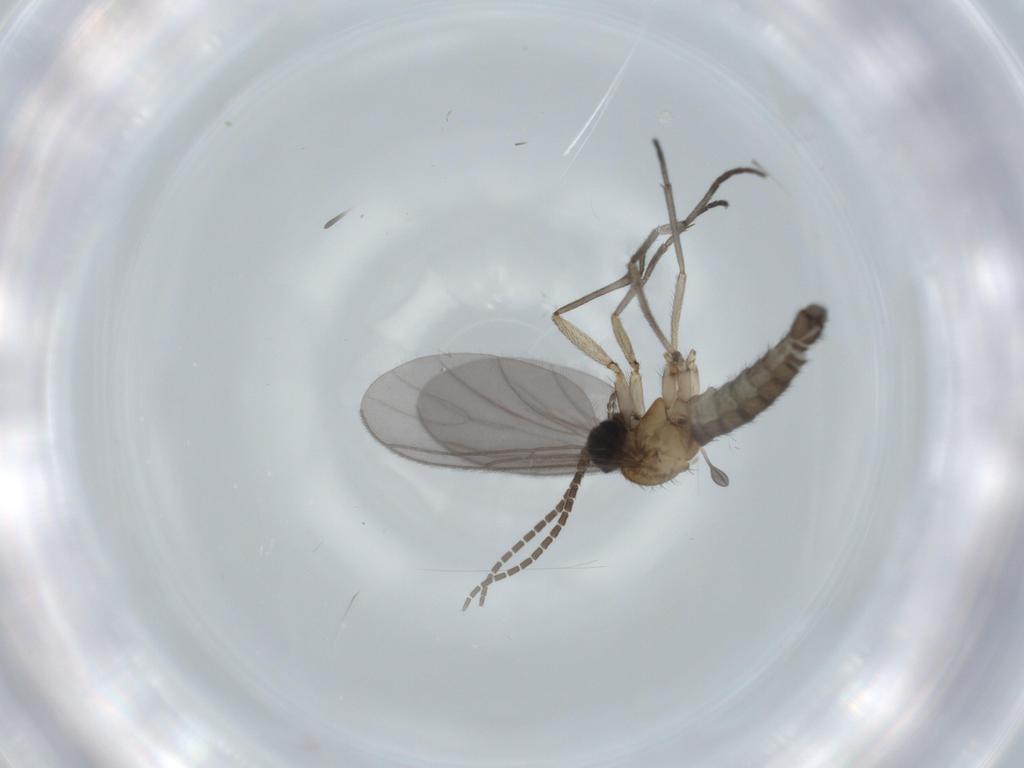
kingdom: Animalia
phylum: Arthropoda
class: Insecta
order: Diptera
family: Sciaridae
